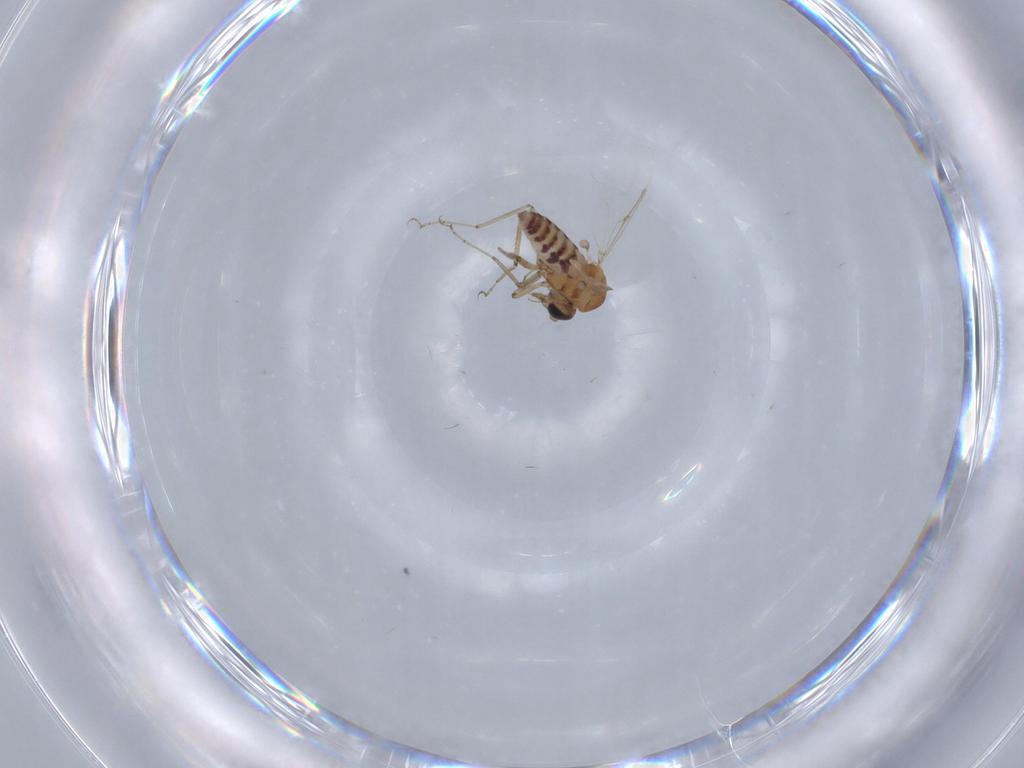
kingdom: Animalia
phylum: Arthropoda
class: Insecta
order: Diptera
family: Ceratopogonidae
